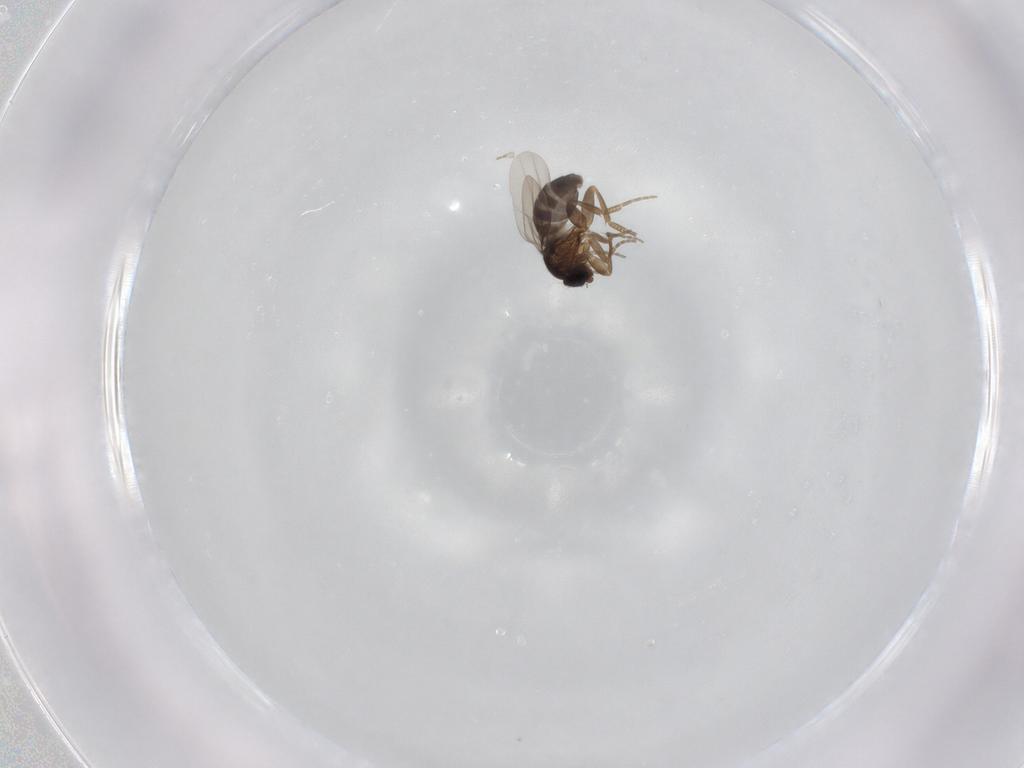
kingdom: Animalia
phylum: Arthropoda
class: Insecta
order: Diptera
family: Phoridae
